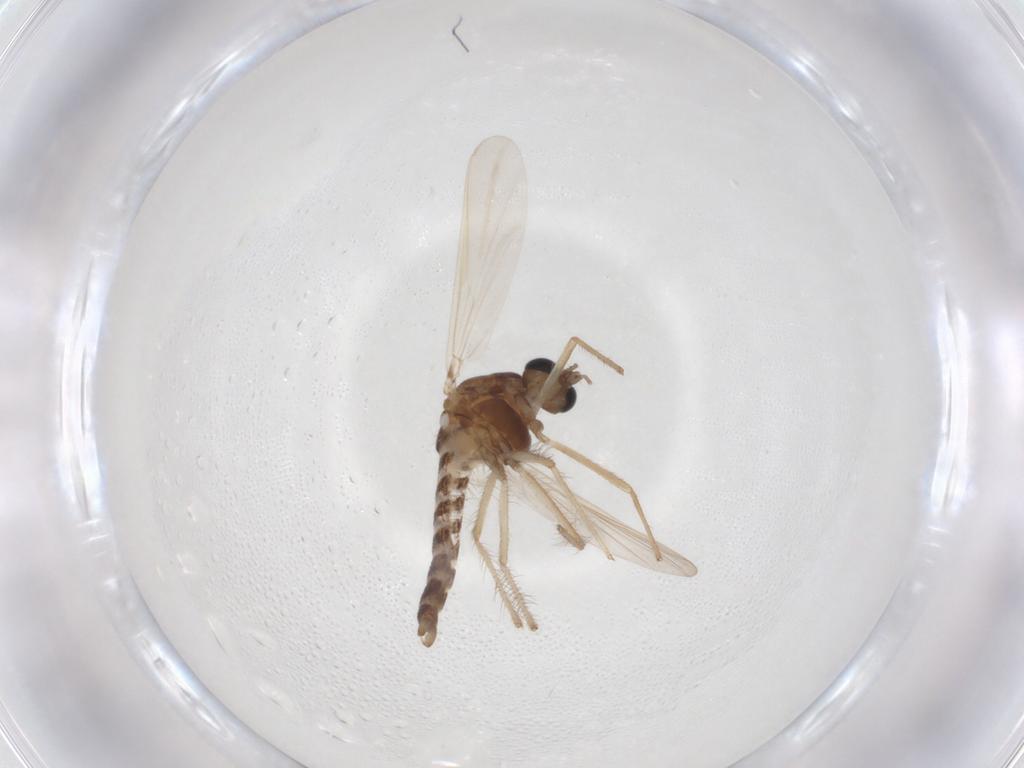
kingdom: Animalia
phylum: Arthropoda
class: Insecta
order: Diptera
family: Chironomidae
